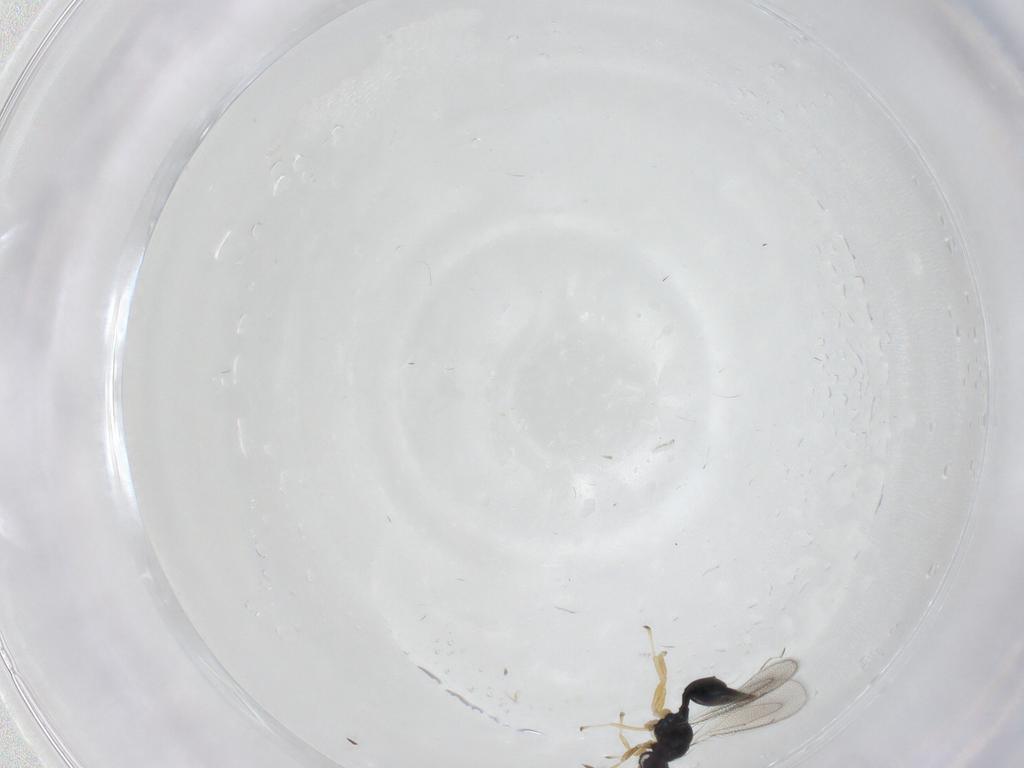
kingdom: Animalia
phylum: Arthropoda
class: Insecta
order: Hymenoptera
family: Eulophidae
